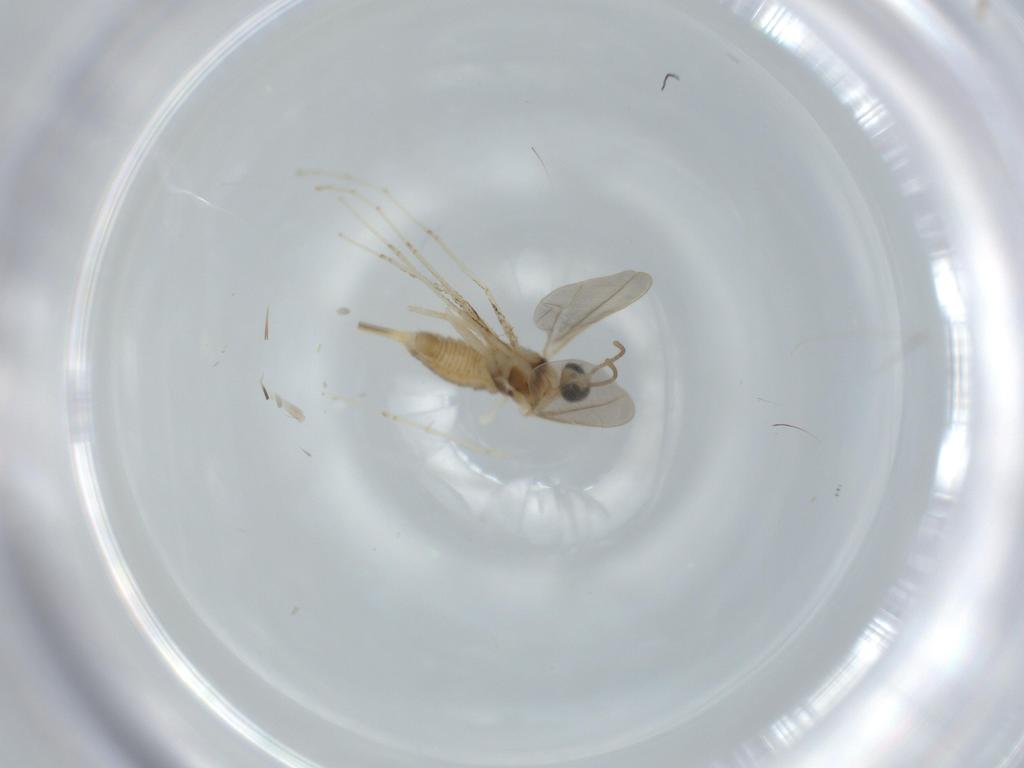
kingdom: Animalia
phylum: Arthropoda
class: Insecta
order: Diptera
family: Cecidomyiidae
